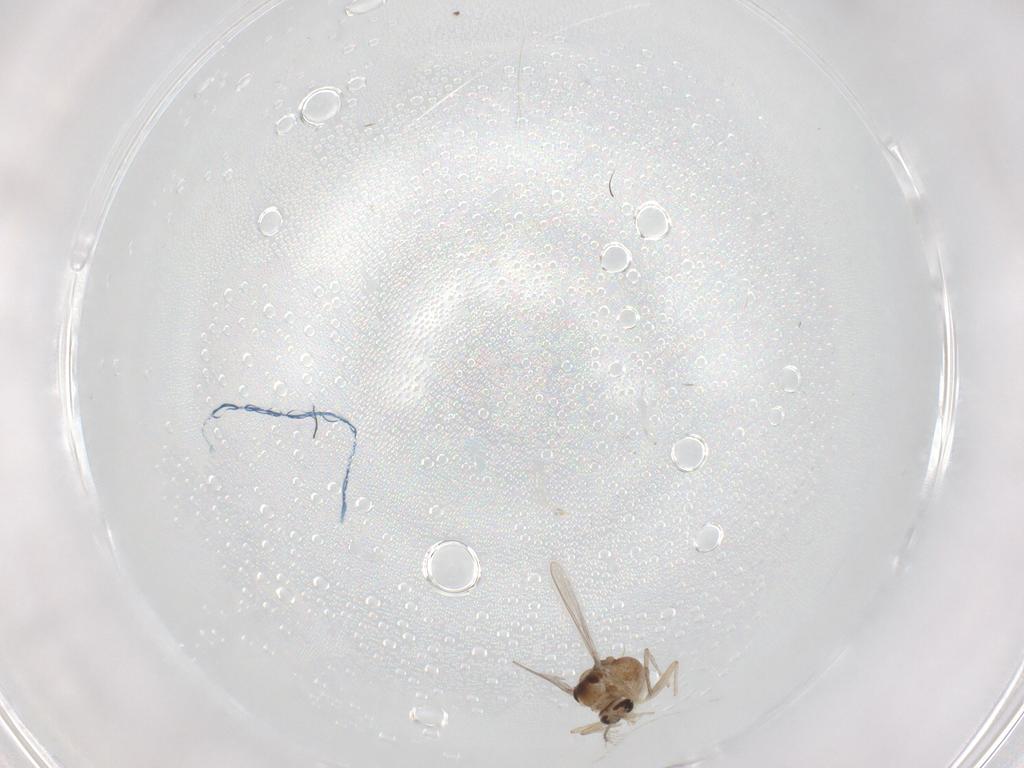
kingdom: Animalia
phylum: Arthropoda
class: Insecta
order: Diptera
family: Chironomidae
